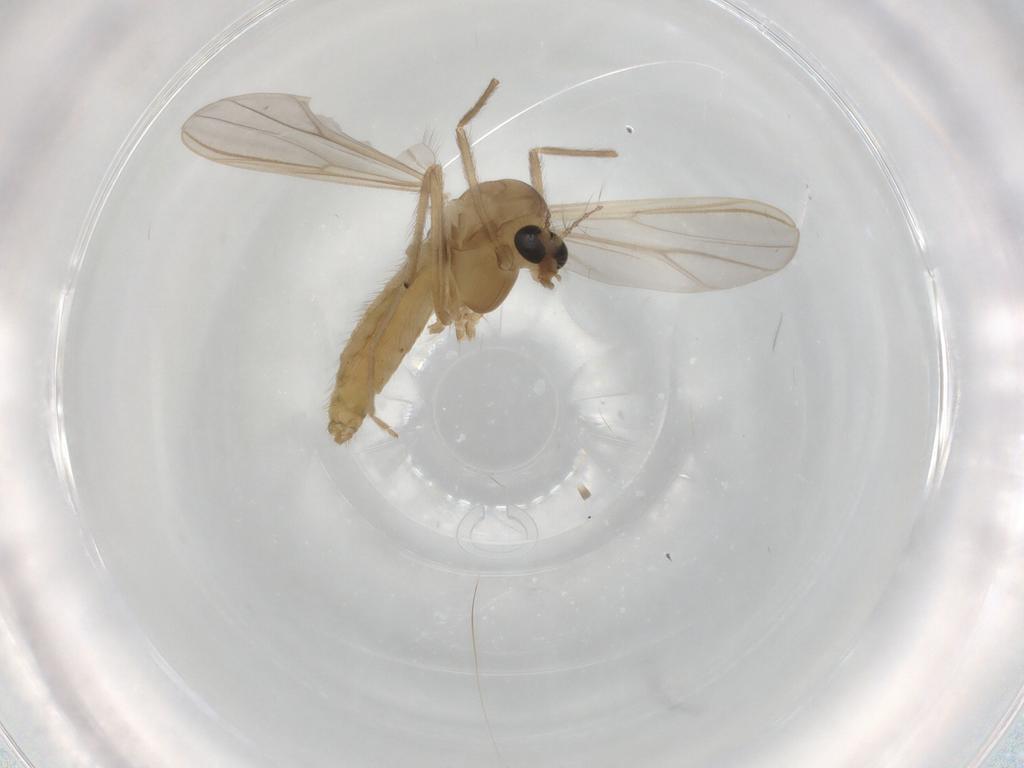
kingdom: Animalia
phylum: Arthropoda
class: Insecta
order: Diptera
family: Chironomidae
